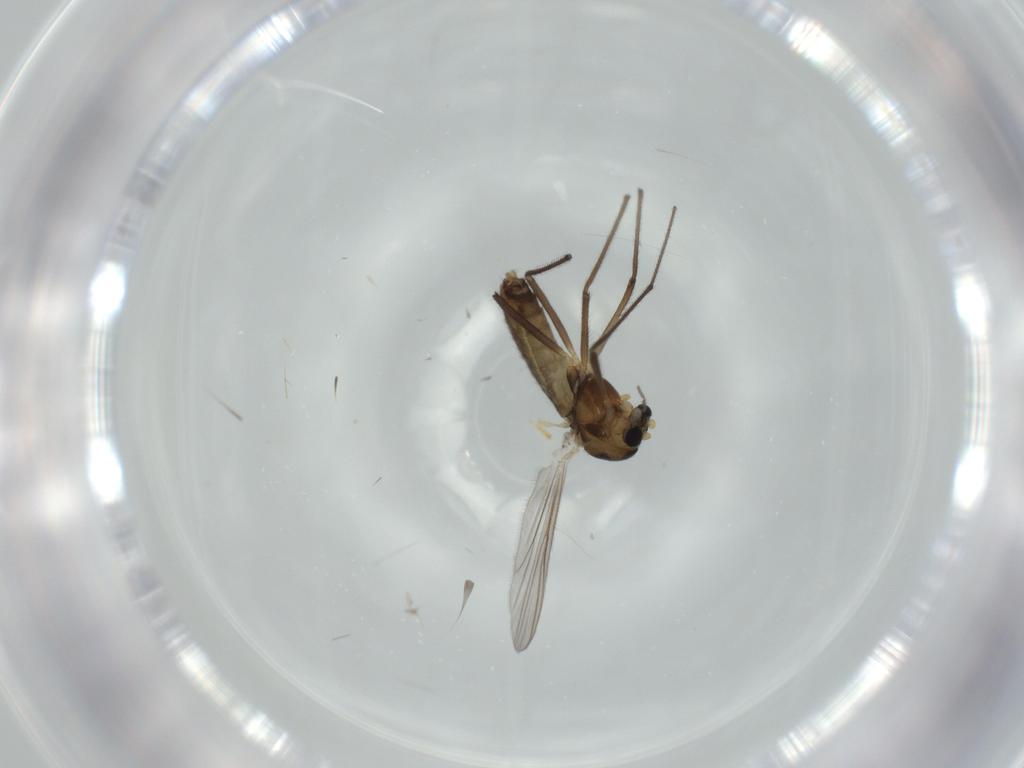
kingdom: Animalia
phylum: Arthropoda
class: Insecta
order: Diptera
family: Chironomidae
